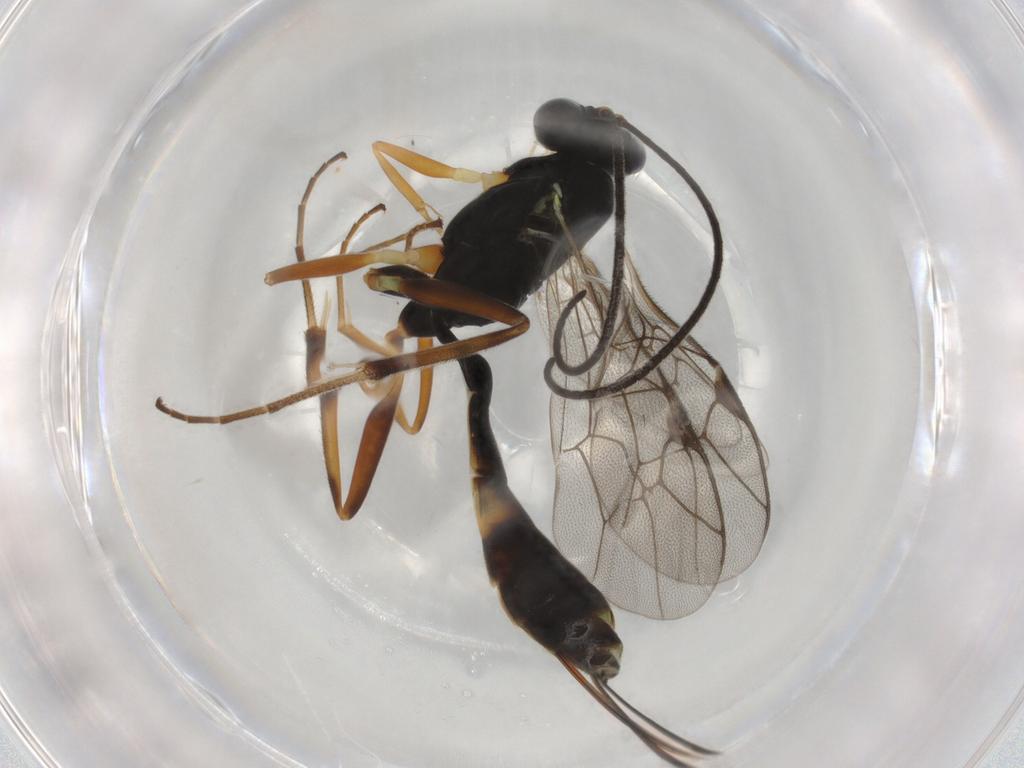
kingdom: Animalia
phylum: Arthropoda
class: Insecta
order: Hymenoptera
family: Ichneumonidae
